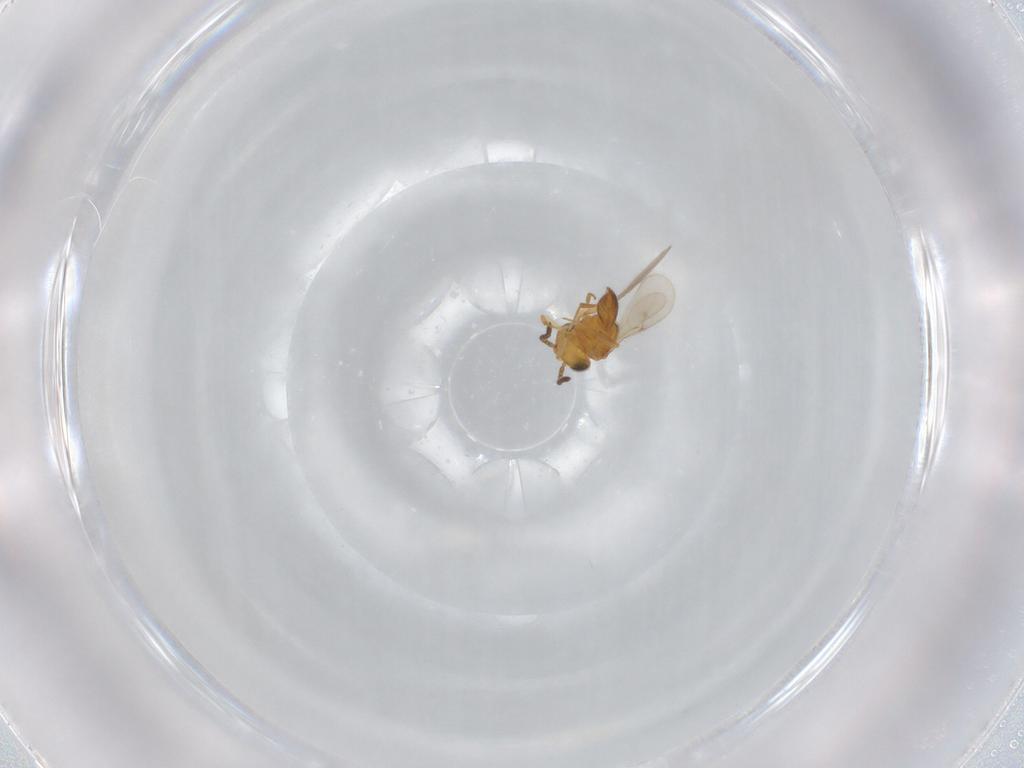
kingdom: Animalia
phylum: Arthropoda
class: Insecta
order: Hymenoptera
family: Scelionidae
